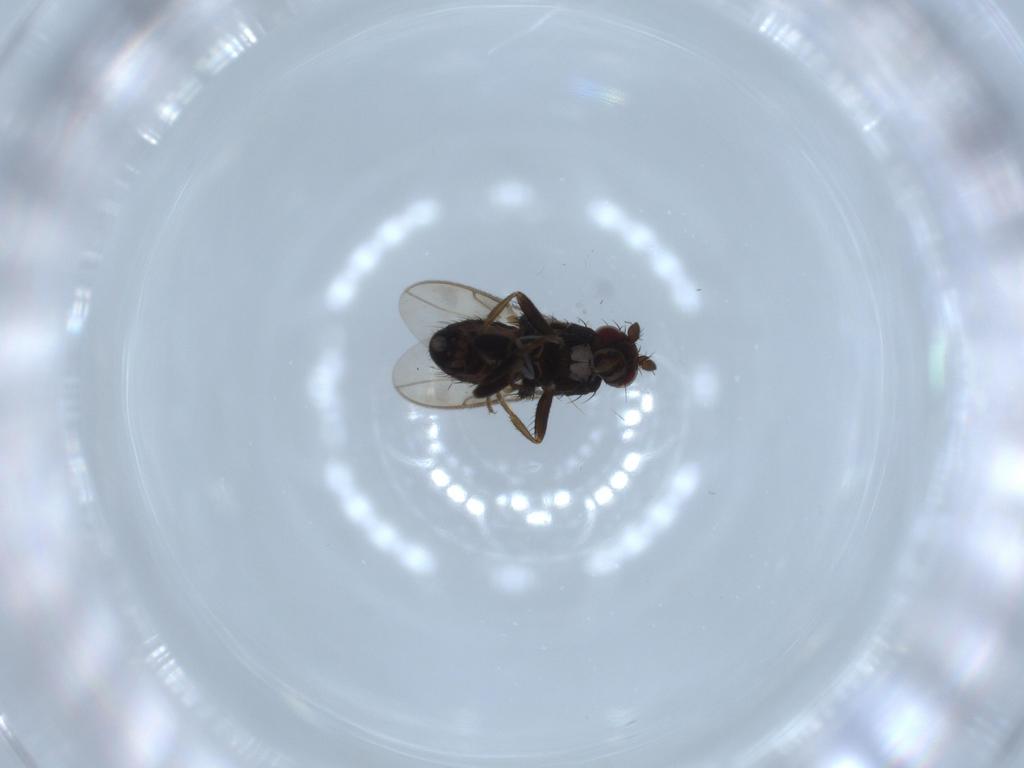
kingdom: Animalia
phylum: Arthropoda
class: Insecta
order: Diptera
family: Sphaeroceridae
